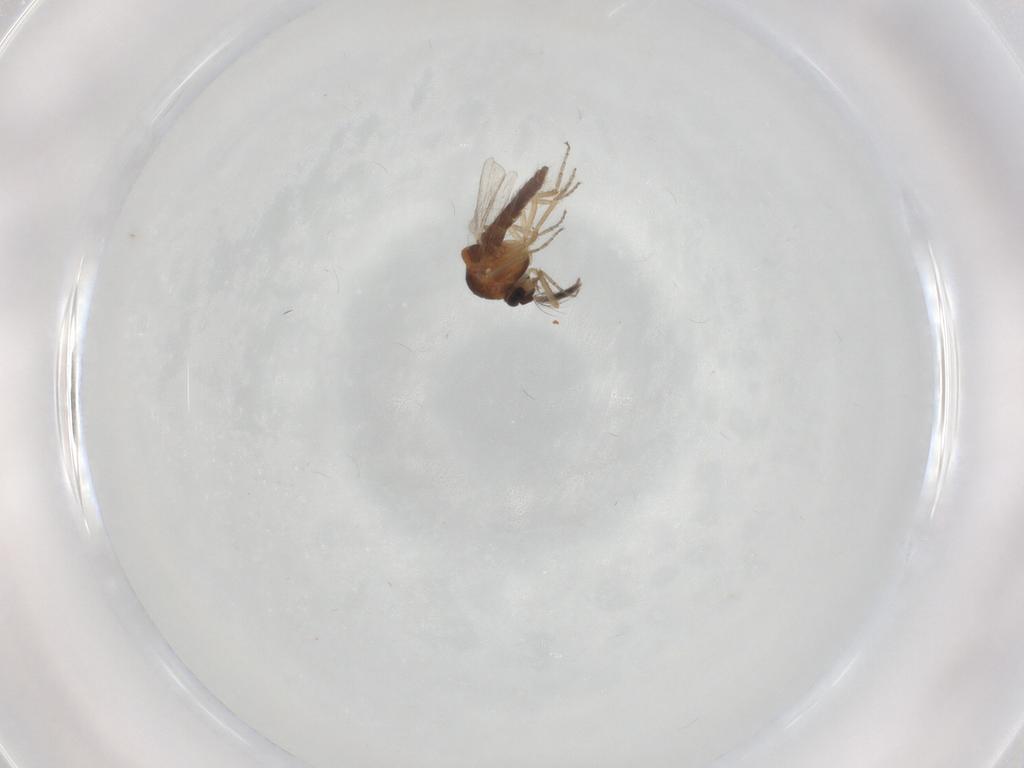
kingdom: Animalia
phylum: Arthropoda
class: Insecta
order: Diptera
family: Ceratopogonidae
